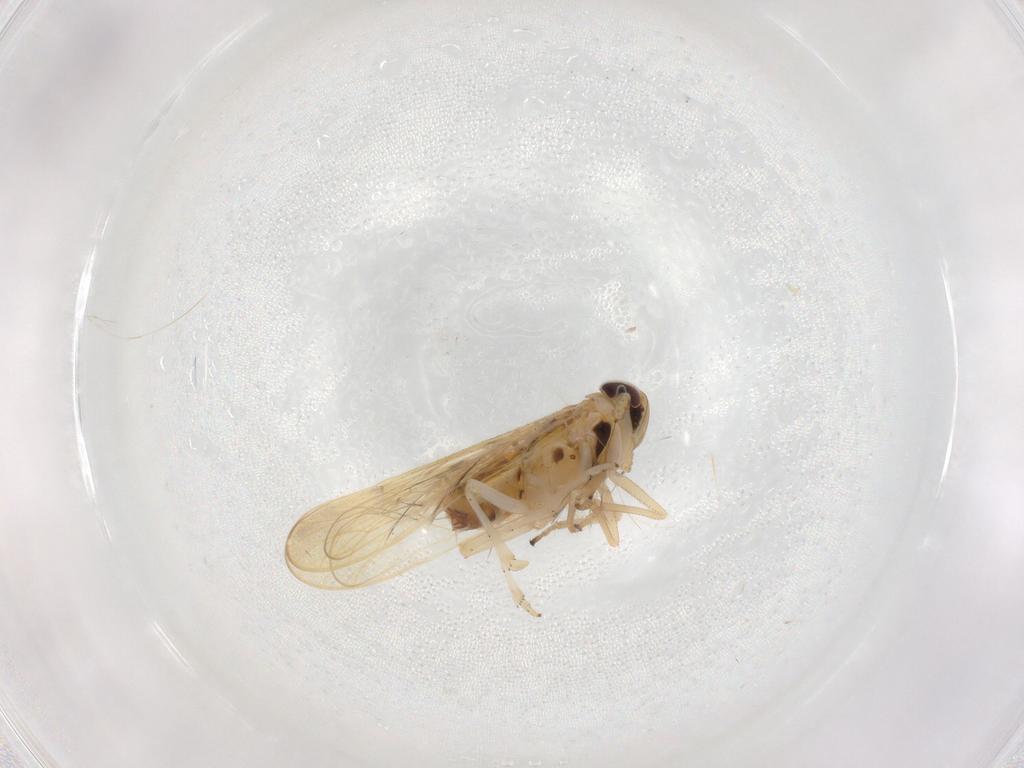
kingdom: Animalia
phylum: Arthropoda
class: Insecta
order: Hemiptera
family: Delphacidae
